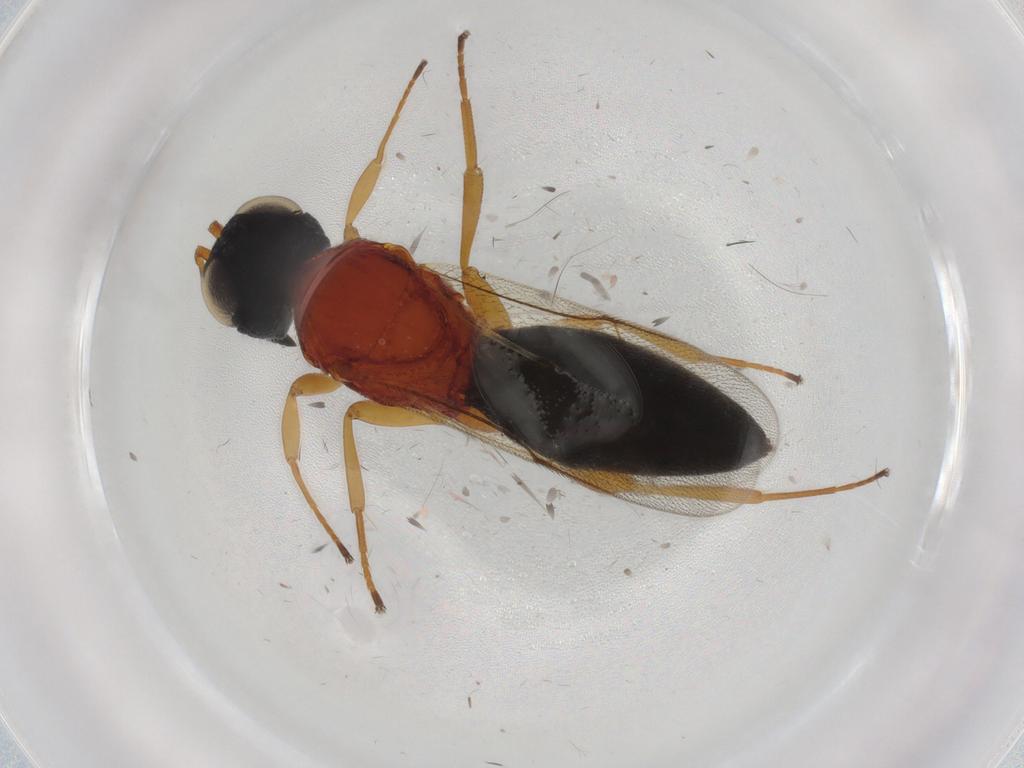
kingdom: Animalia
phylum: Arthropoda
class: Insecta
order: Hymenoptera
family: Scelionidae
